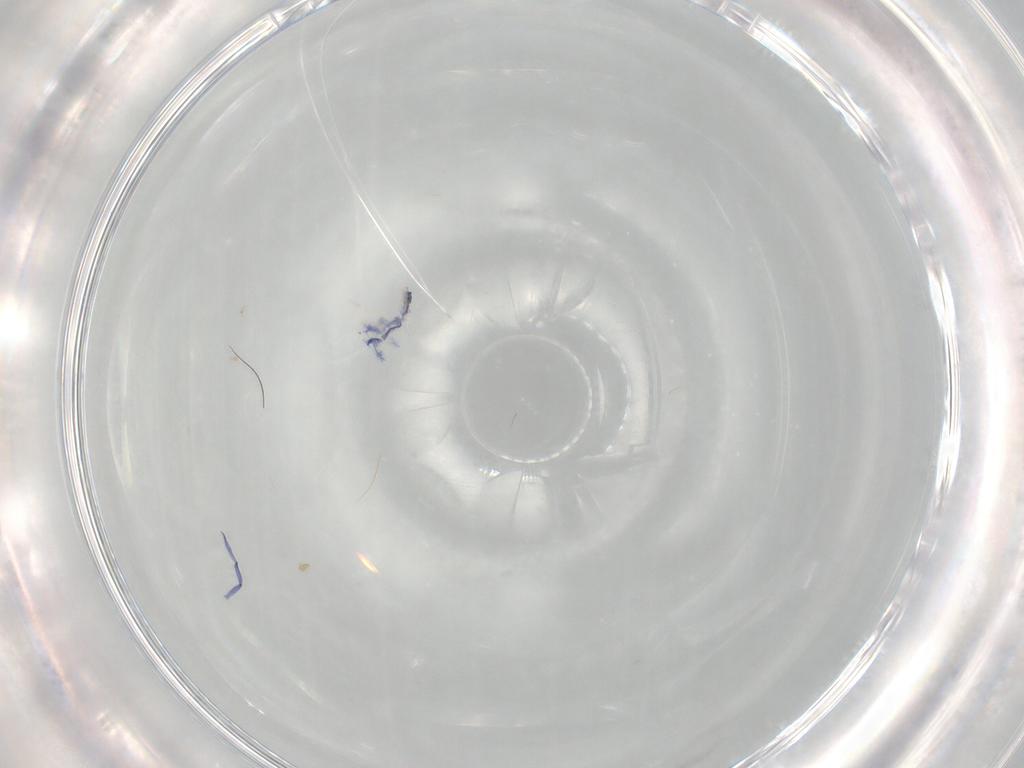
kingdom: Animalia
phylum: Arthropoda
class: Collembola
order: Entomobryomorpha
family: Entomobryidae
